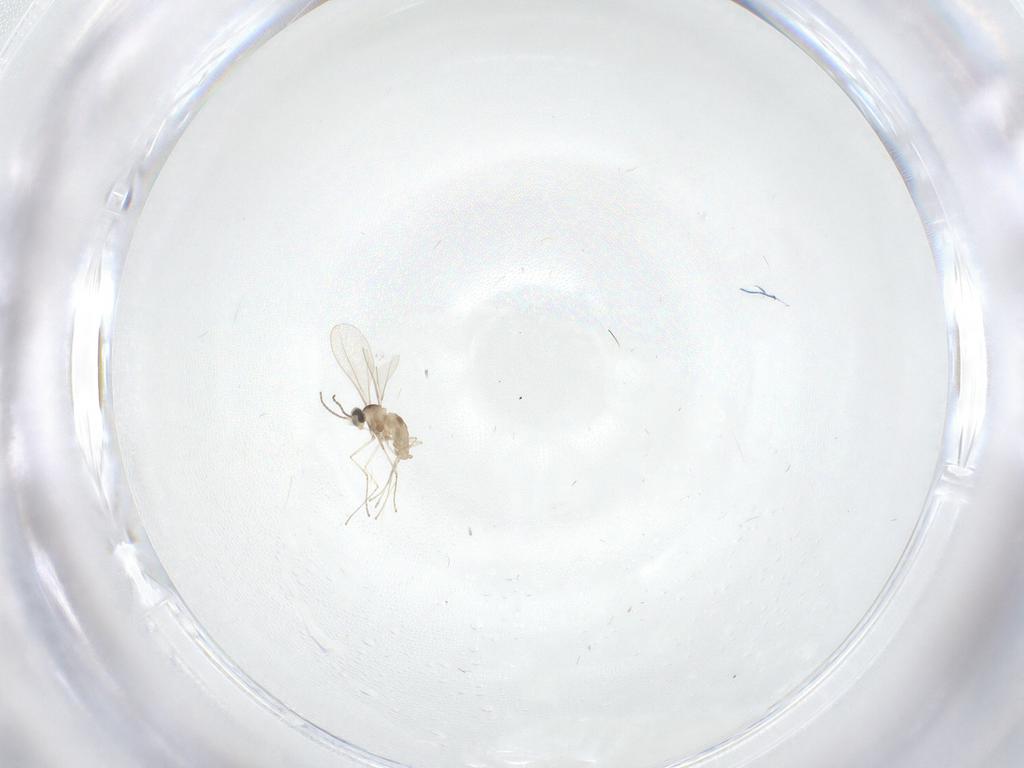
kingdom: Animalia
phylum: Arthropoda
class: Insecta
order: Diptera
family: Cecidomyiidae
